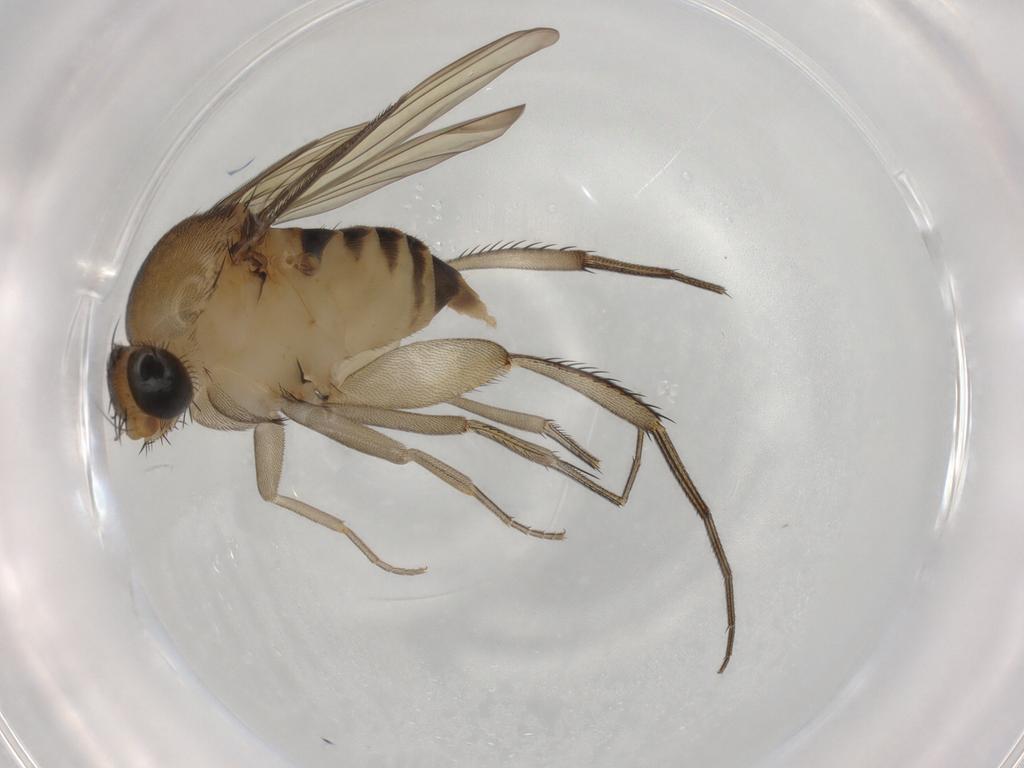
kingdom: Animalia
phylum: Arthropoda
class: Insecta
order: Diptera
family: Phoridae
